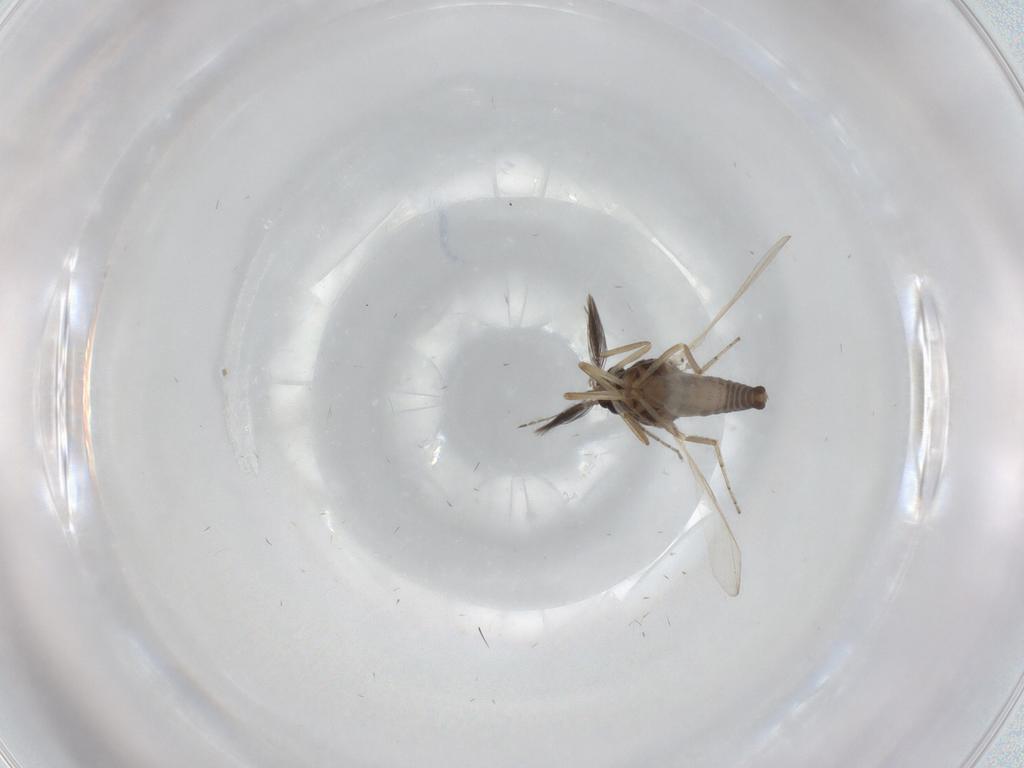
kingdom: Animalia
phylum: Arthropoda
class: Insecta
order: Diptera
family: Ceratopogonidae
